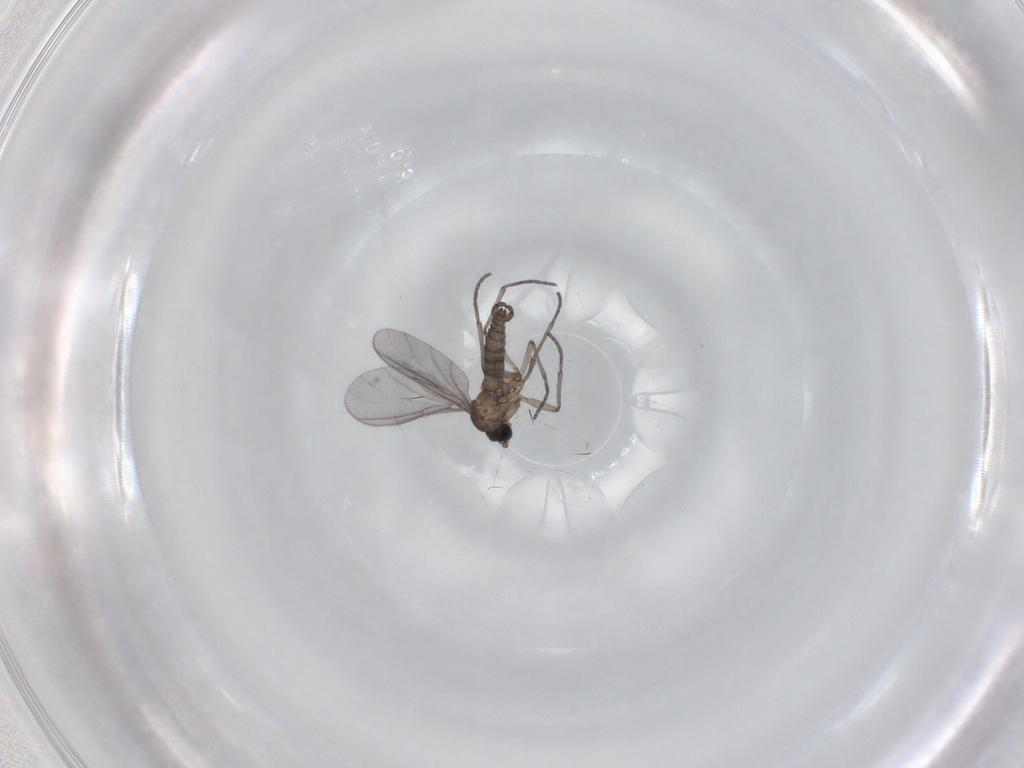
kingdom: Animalia
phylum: Arthropoda
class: Insecta
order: Diptera
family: Sciaridae
